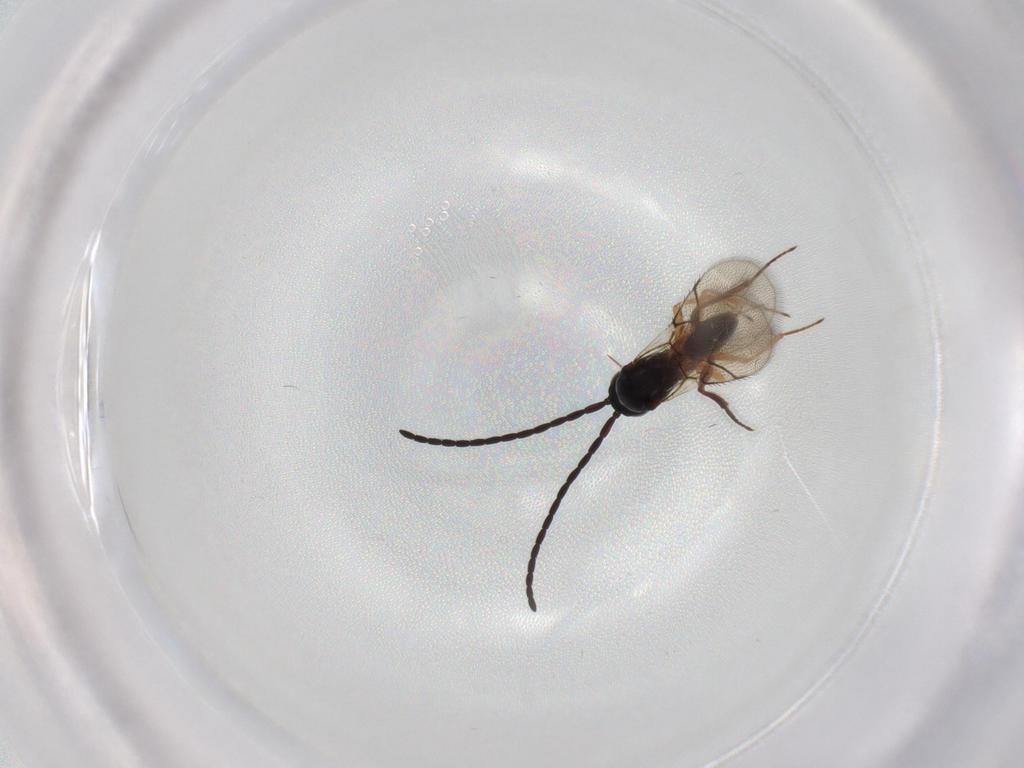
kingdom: Animalia
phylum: Arthropoda
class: Insecta
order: Hymenoptera
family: Figitidae
